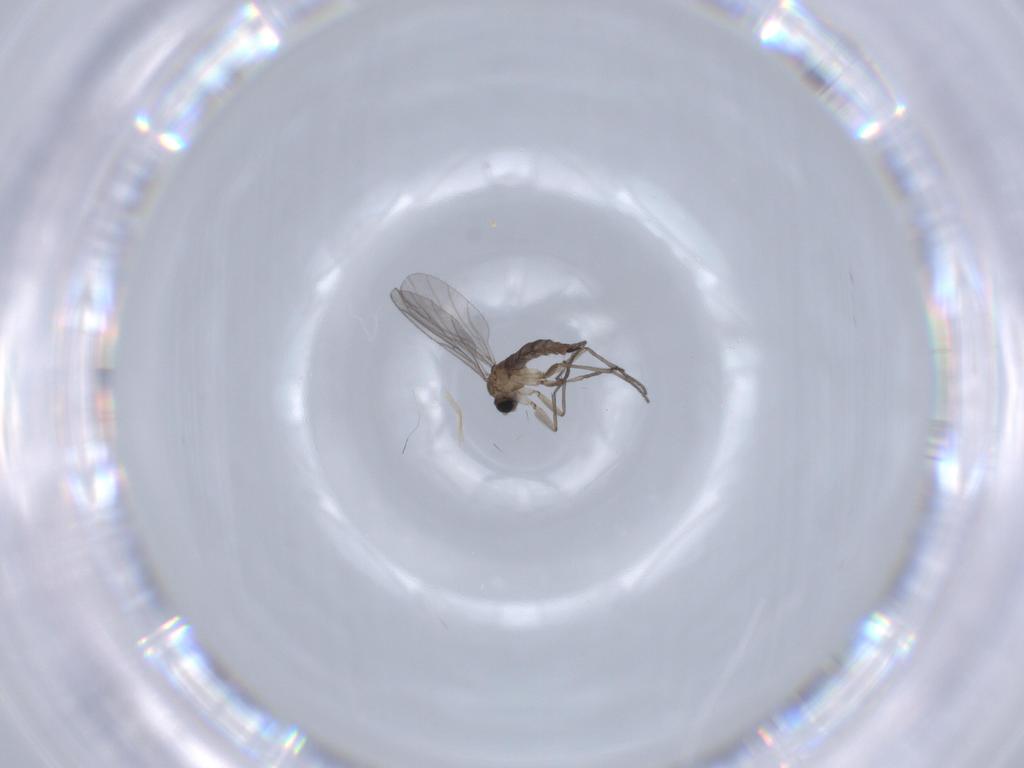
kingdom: Animalia
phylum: Arthropoda
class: Insecta
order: Diptera
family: Sciaridae
